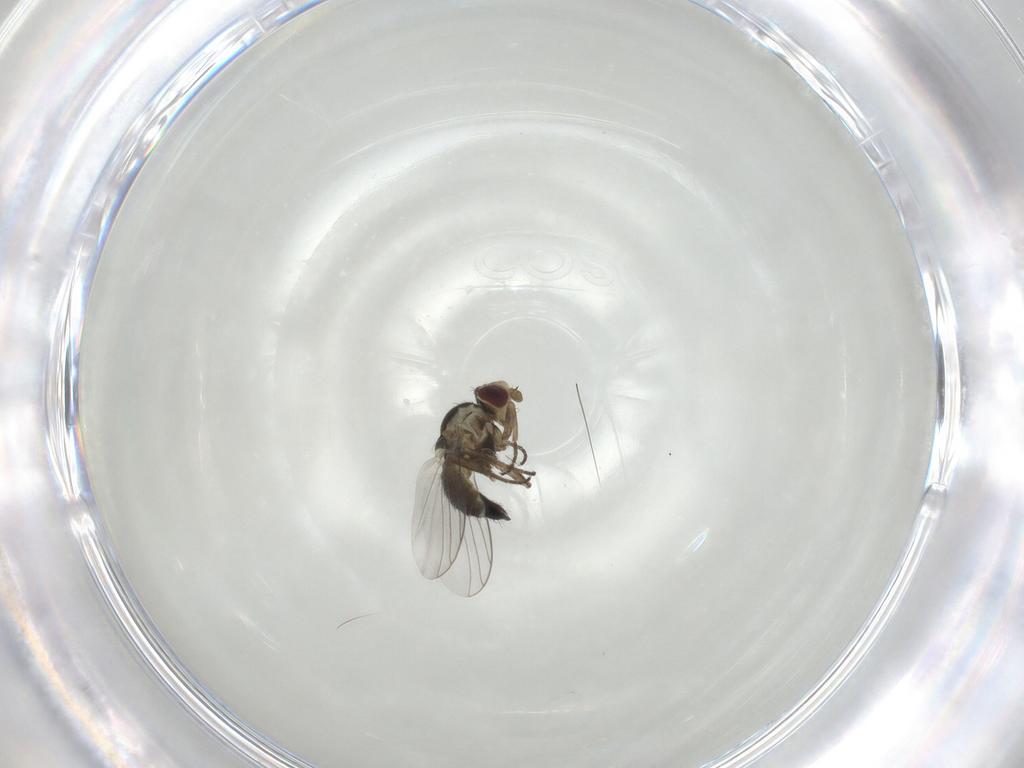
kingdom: Animalia
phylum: Arthropoda
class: Insecta
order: Diptera
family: Agromyzidae
